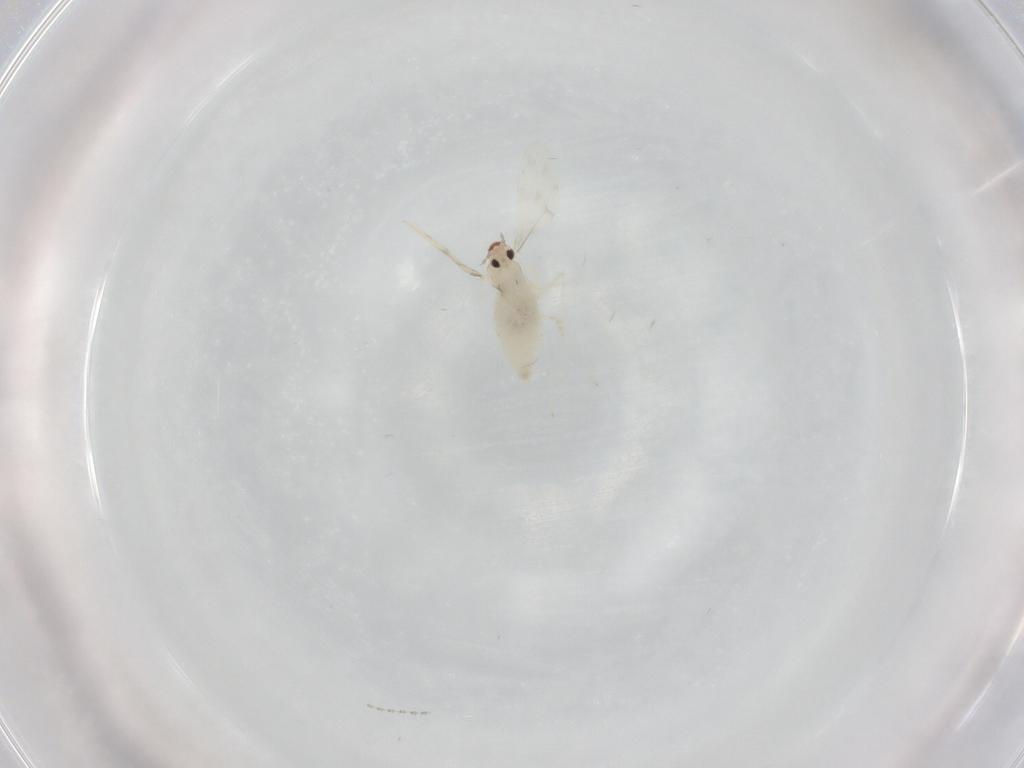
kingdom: Animalia
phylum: Arthropoda
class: Insecta
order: Diptera
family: Cecidomyiidae
